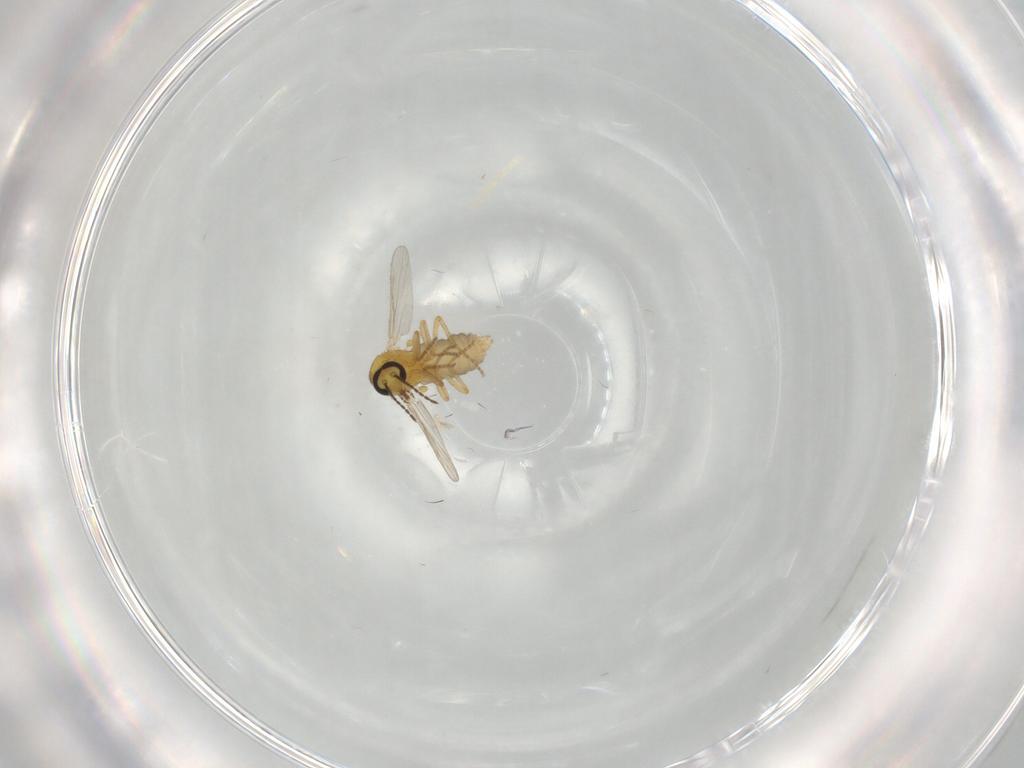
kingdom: Animalia
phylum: Arthropoda
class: Insecta
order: Diptera
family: Ceratopogonidae
